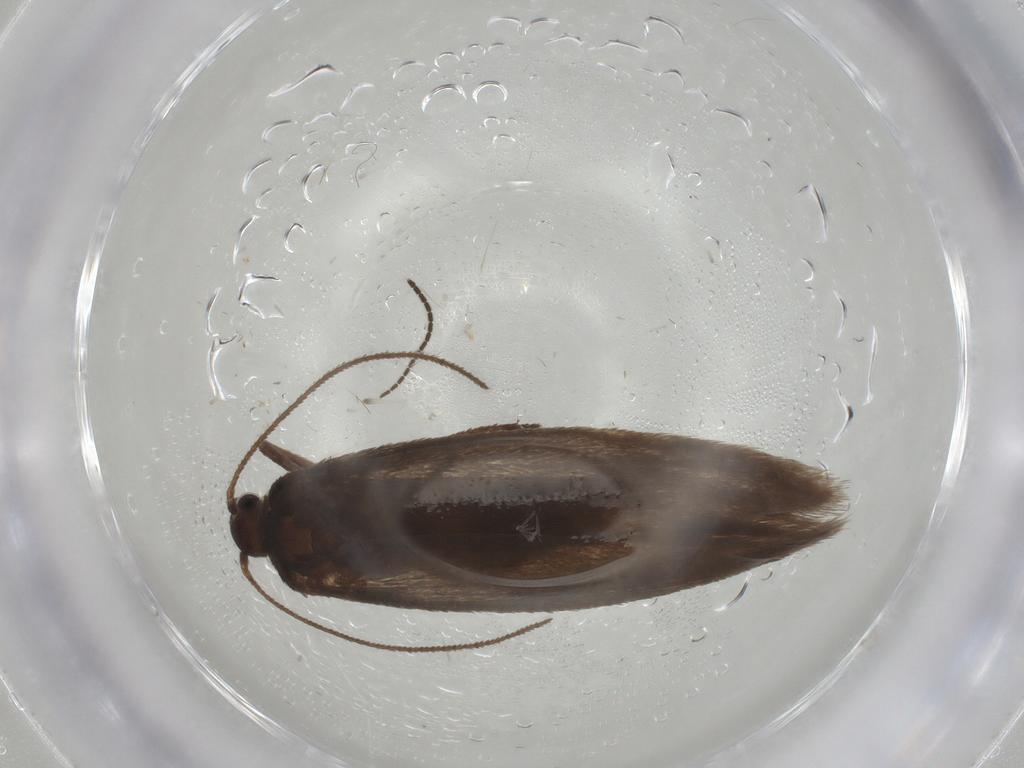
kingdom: Animalia
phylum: Arthropoda
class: Insecta
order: Lepidoptera
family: Limacodidae
